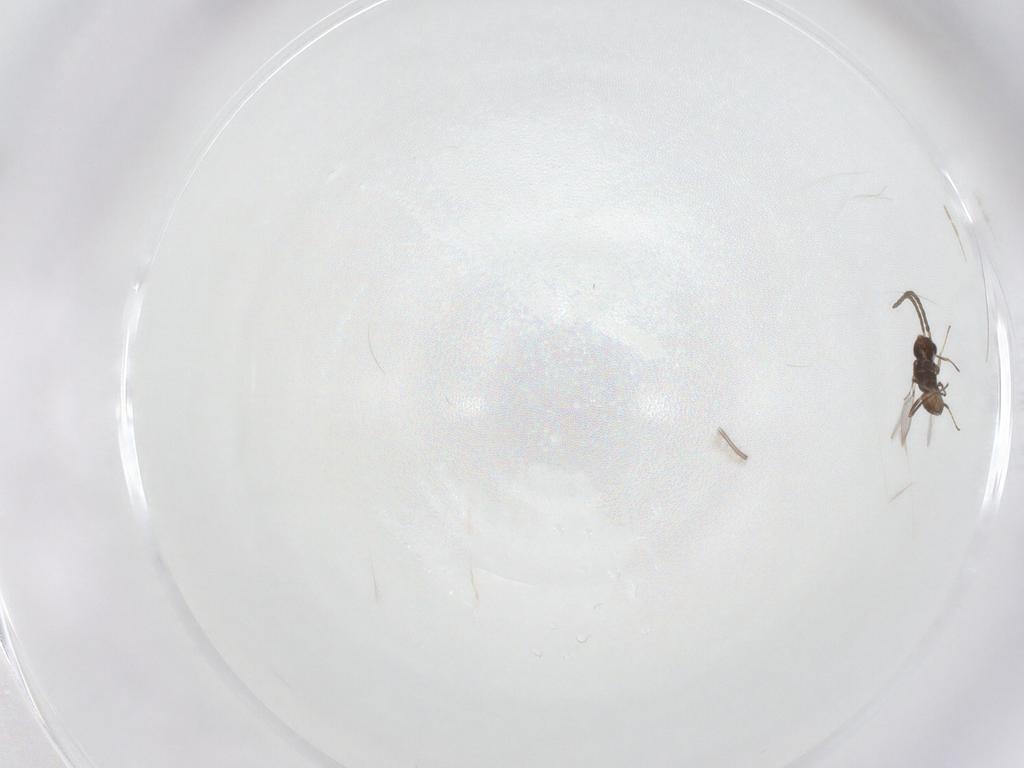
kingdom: Animalia
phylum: Arthropoda
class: Insecta
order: Hymenoptera
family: Mymaridae
